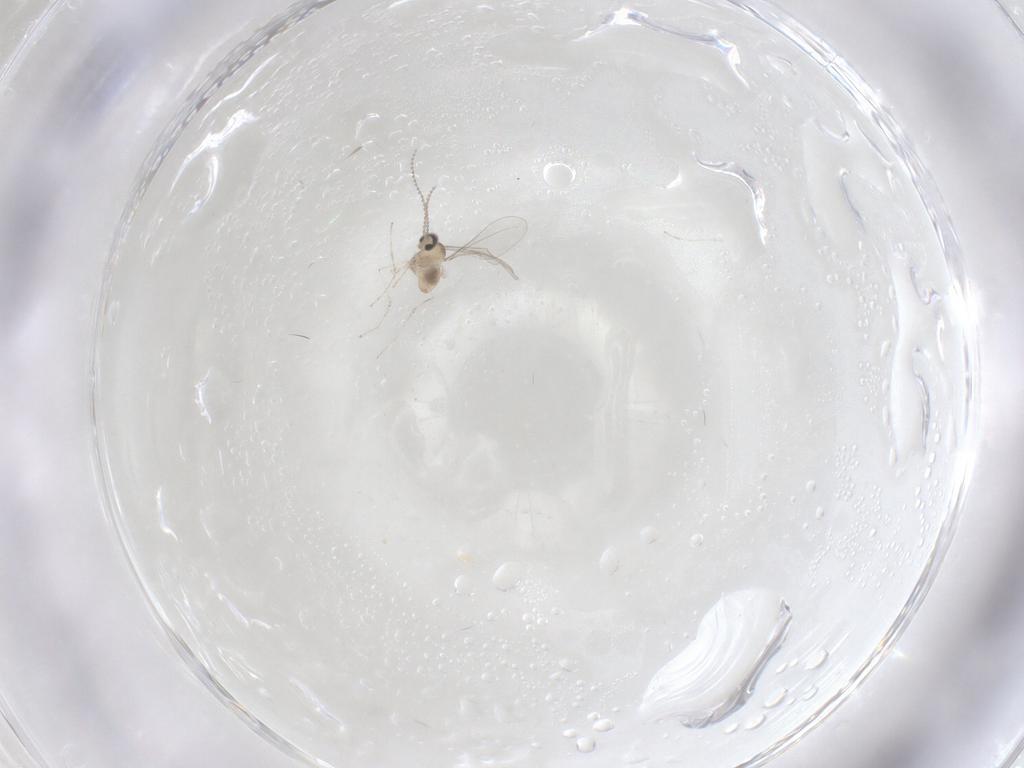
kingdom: Animalia
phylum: Arthropoda
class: Insecta
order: Diptera
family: Cecidomyiidae
